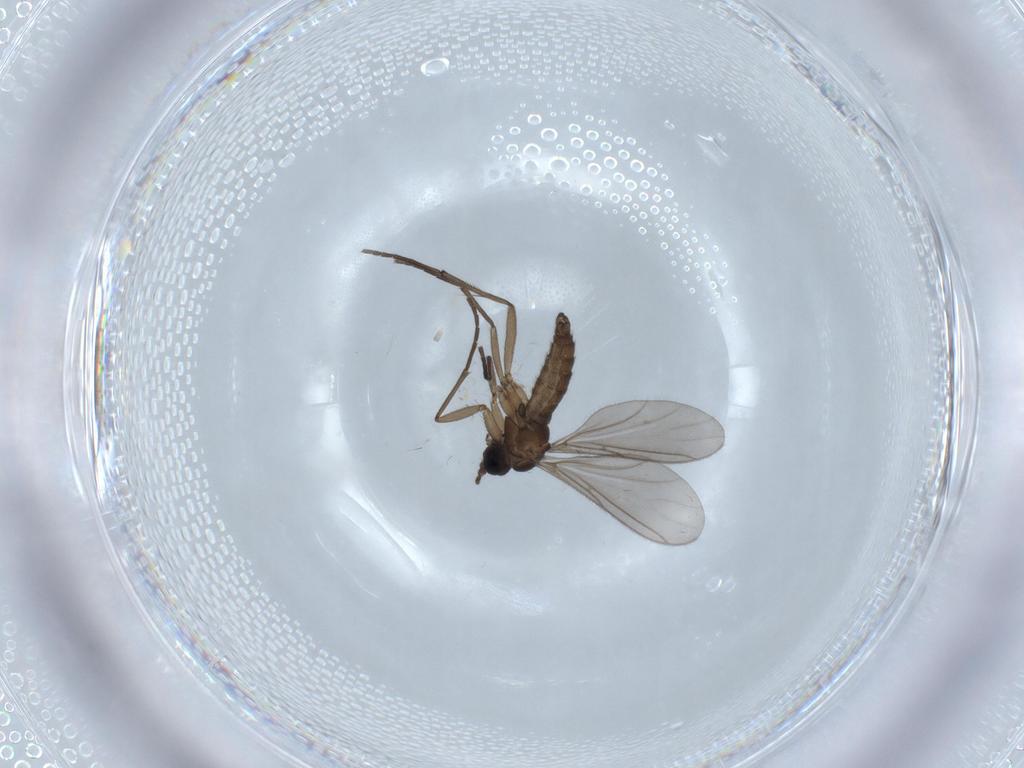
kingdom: Animalia
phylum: Arthropoda
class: Insecta
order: Diptera
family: Sciaridae
